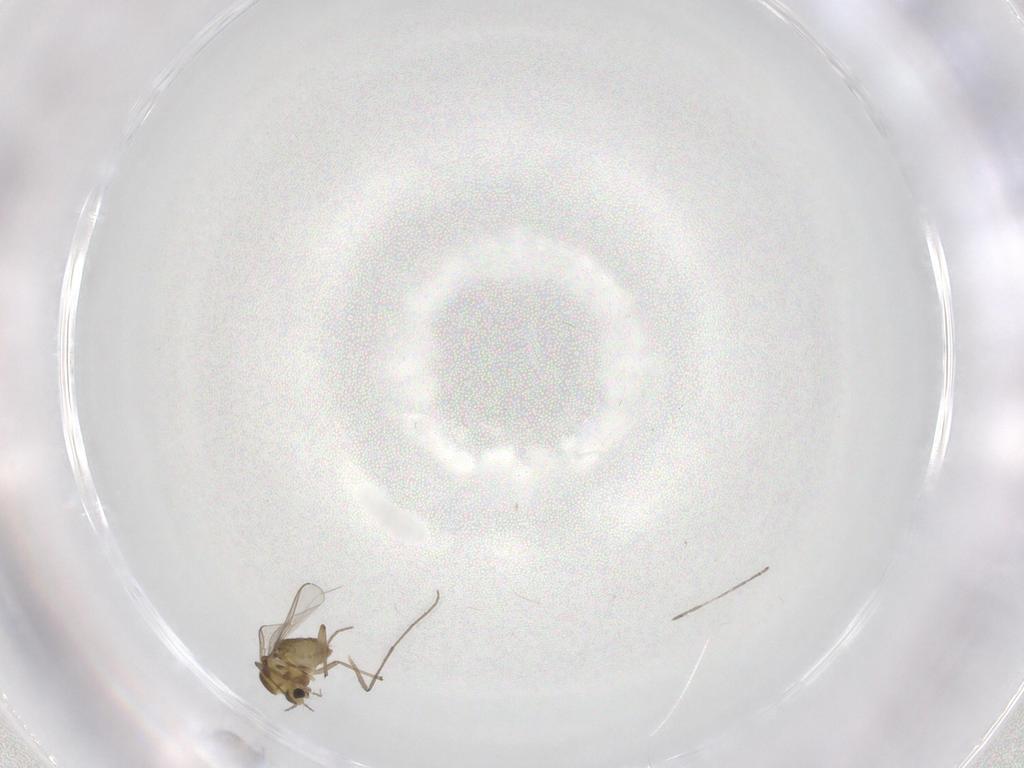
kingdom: Animalia
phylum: Arthropoda
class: Insecta
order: Diptera
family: Chironomidae
